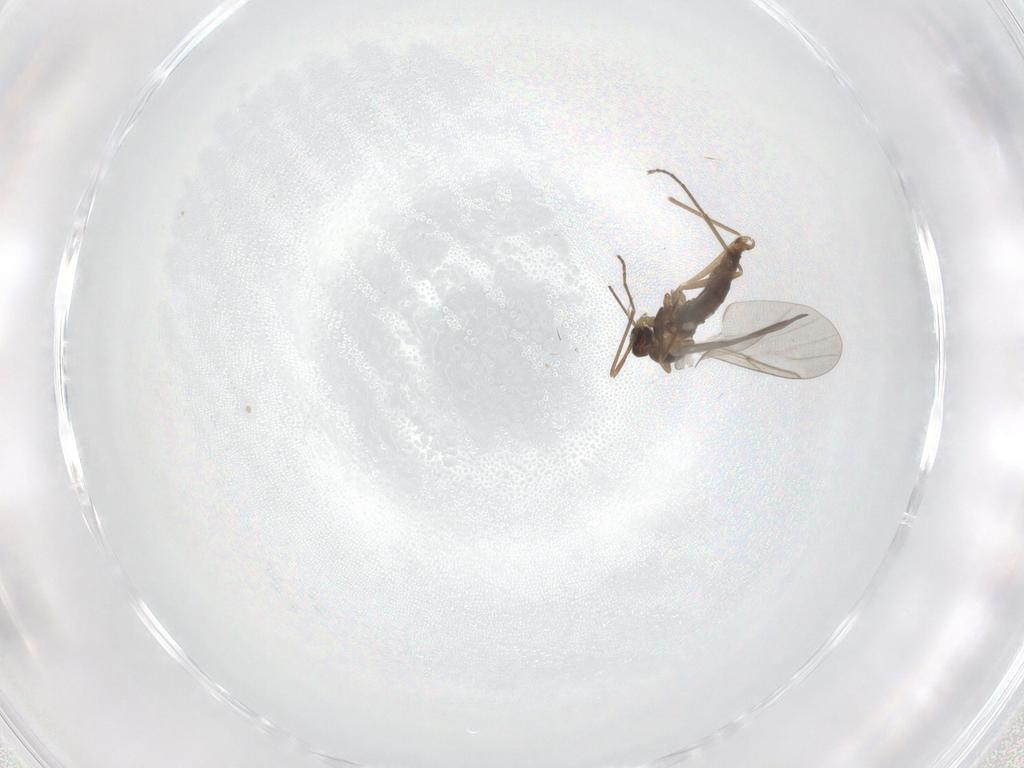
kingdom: Animalia
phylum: Arthropoda
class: Insecta
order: Diptera
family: Cecidomyiidae
